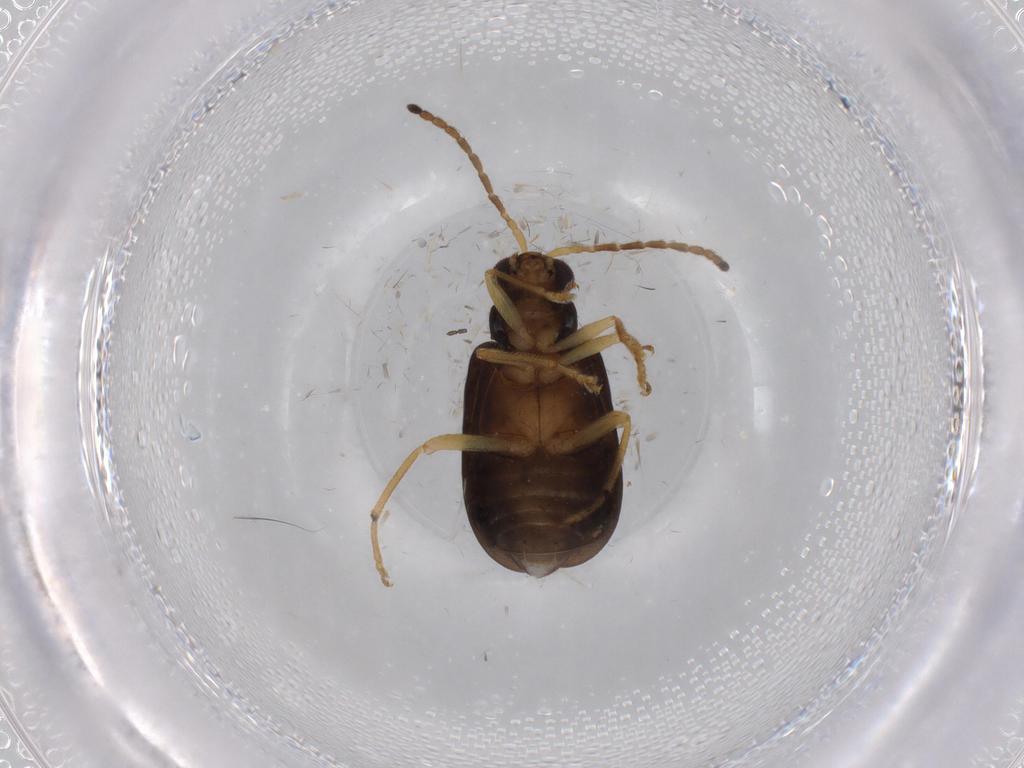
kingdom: Animalia
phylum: Arthropoda
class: Insecta
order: Coleoptera
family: Chrysomelidae
